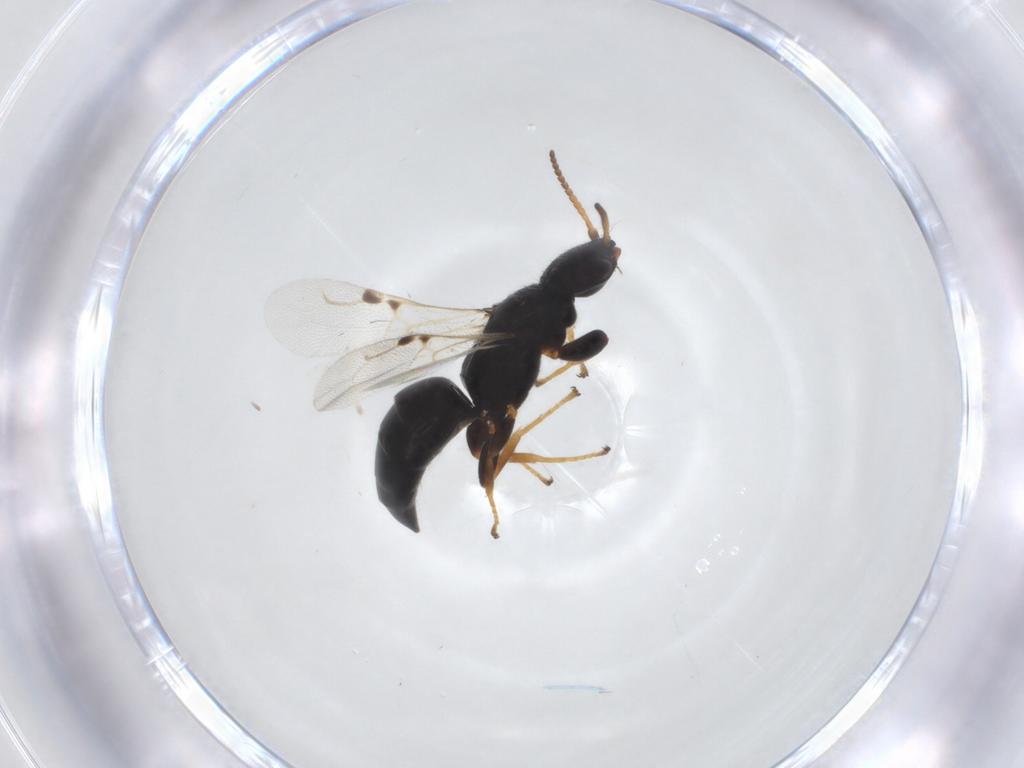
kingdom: Animalia
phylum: Arthropoda
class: Insecta
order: Hymenoptera
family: Bethylidae
